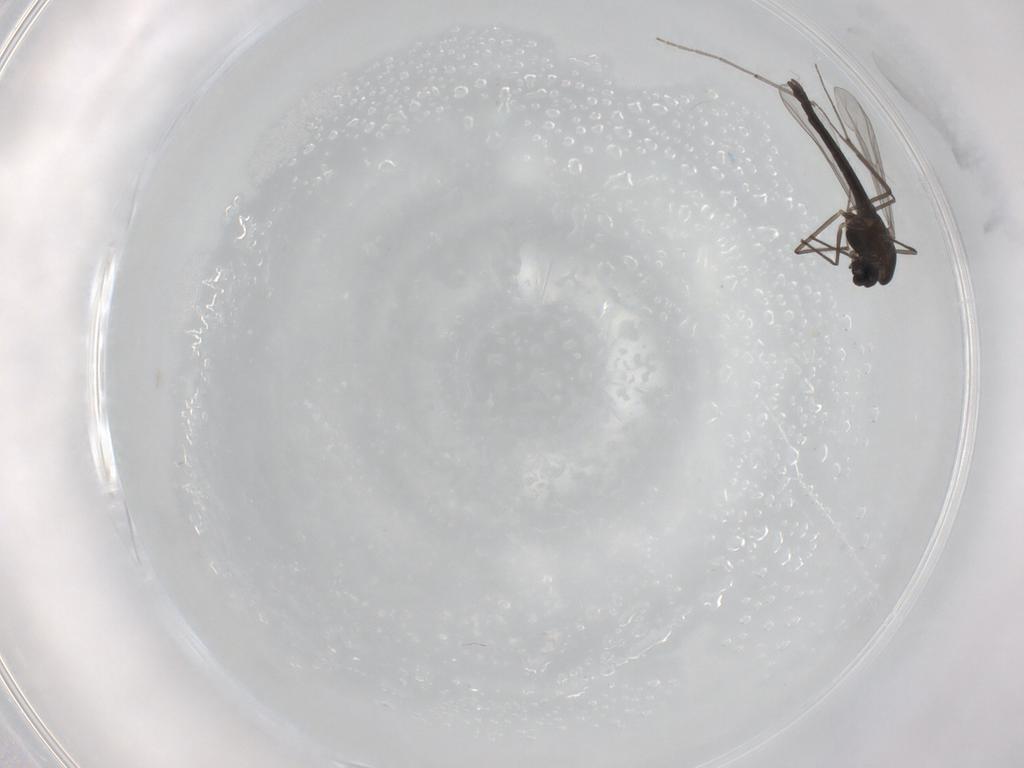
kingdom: Animalia
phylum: Arthropoda
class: Insecta
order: Diptera
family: Chironomidae
